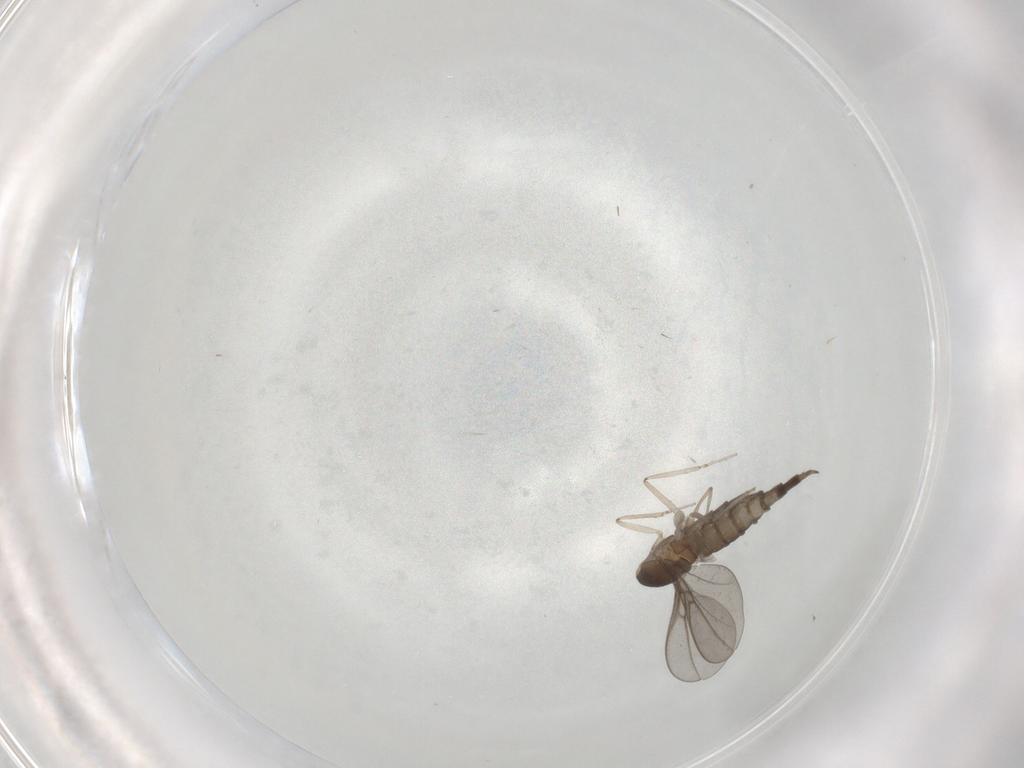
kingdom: Animalia
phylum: Arthropoda
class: Insecta
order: Diptera
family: Cecidomyiidae
